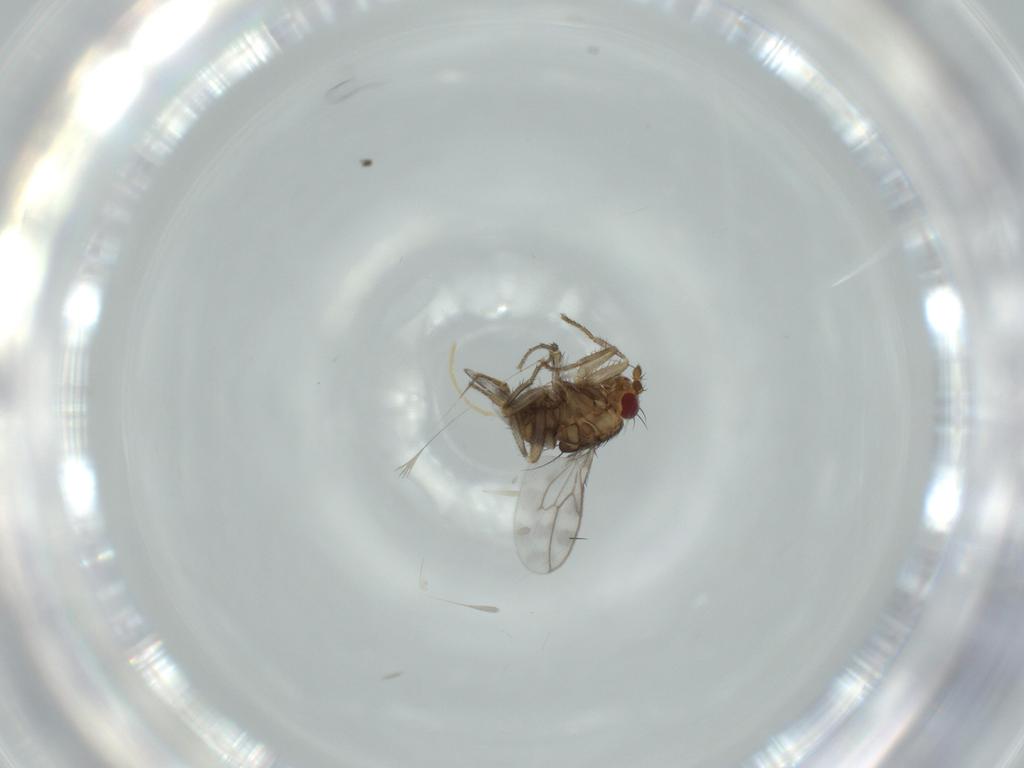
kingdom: Animalia
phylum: Arthropoda
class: Insecta
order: Diptera
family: Sphaeroceridae
